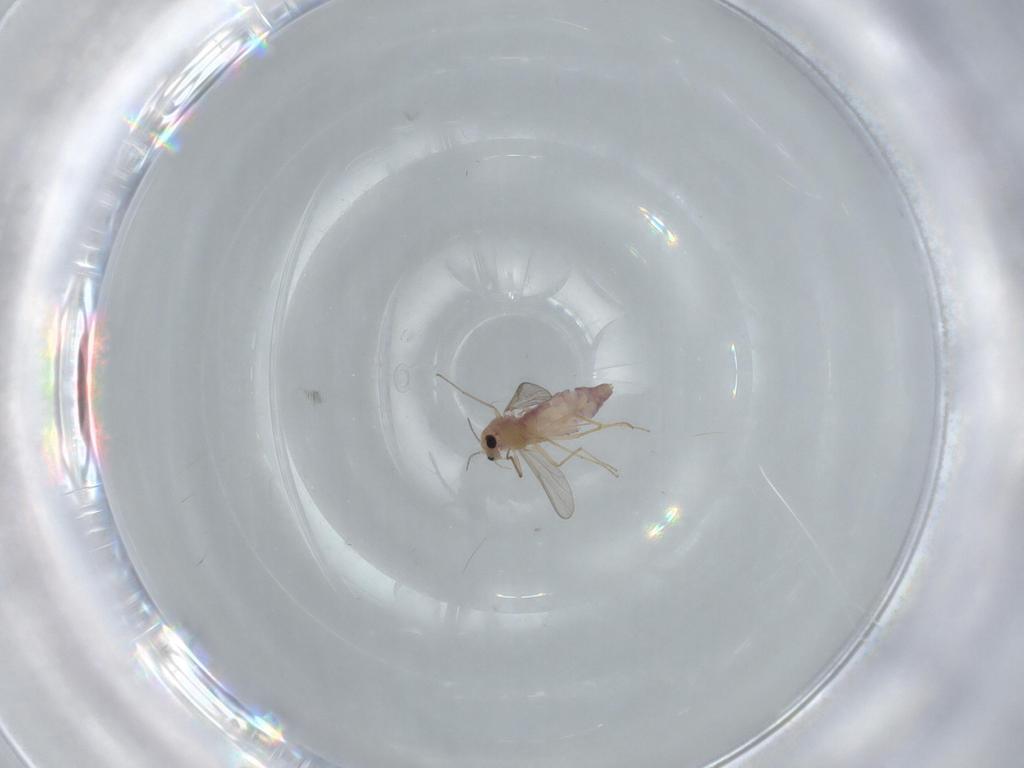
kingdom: Animalia
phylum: Arthropoda
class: Insecta
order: Diptera
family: Chironomidae
